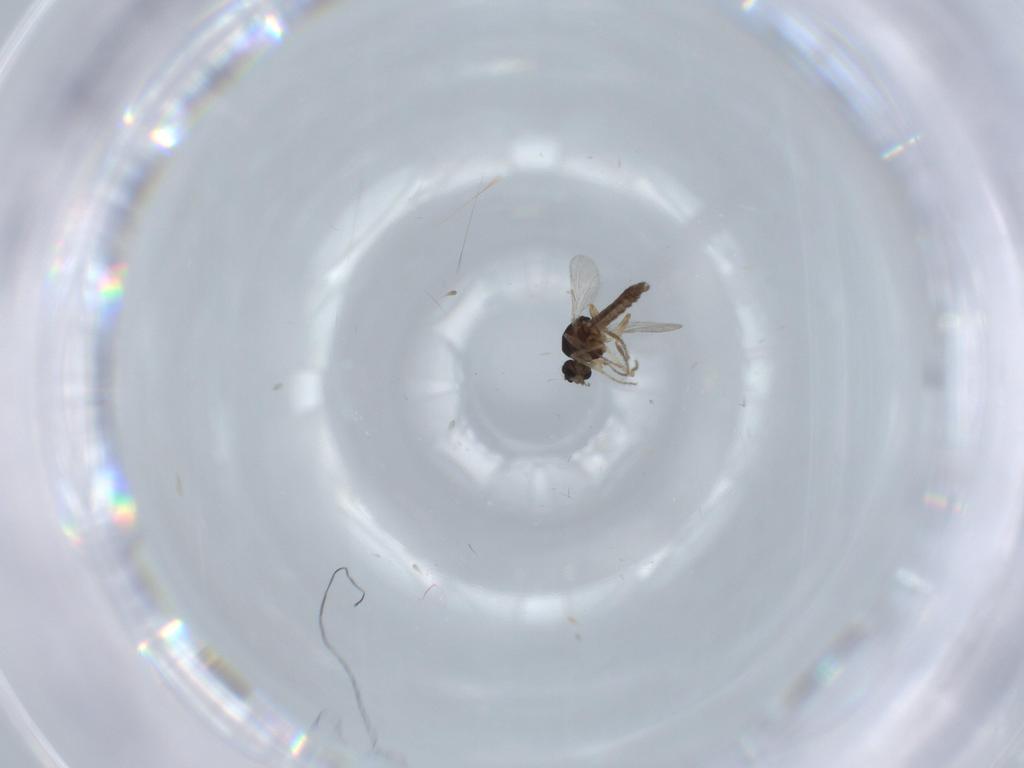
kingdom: Animalia
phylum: Arthropoda
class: Insecta
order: Diptera
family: Ceratopogonidae
